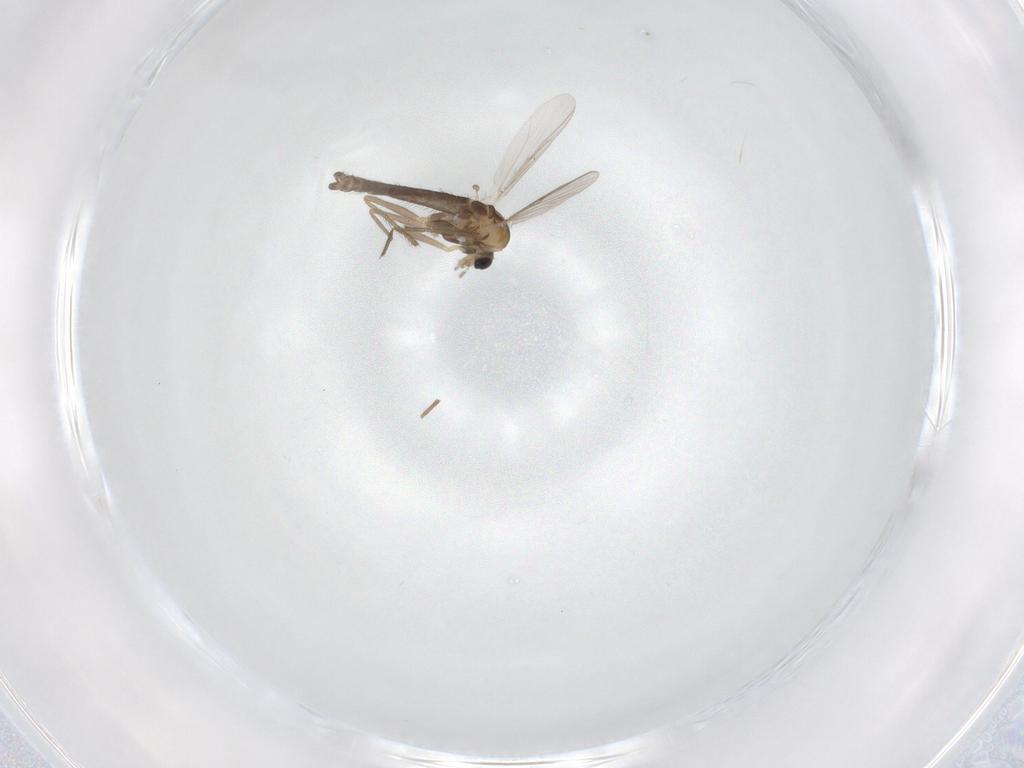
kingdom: Animalia
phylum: Arthropoda
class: Insecta
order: Diptera
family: Chironomidae
